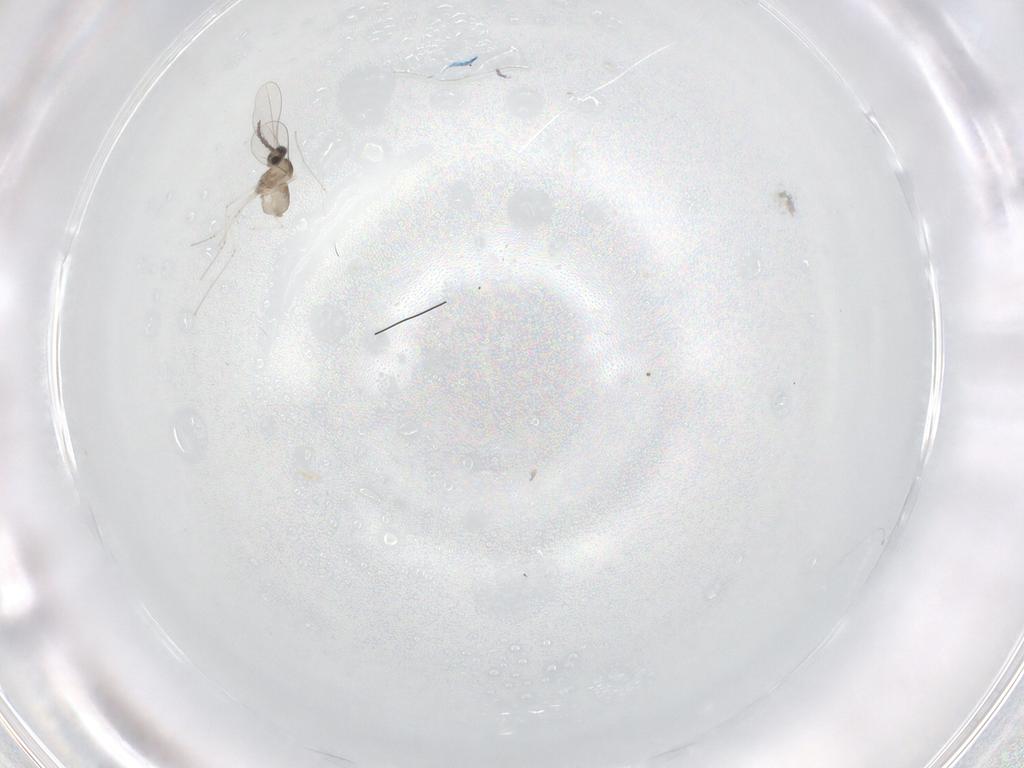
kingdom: Animalia
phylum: Arthropoda
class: Insecta
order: Diptera
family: Cecidomyiidae
